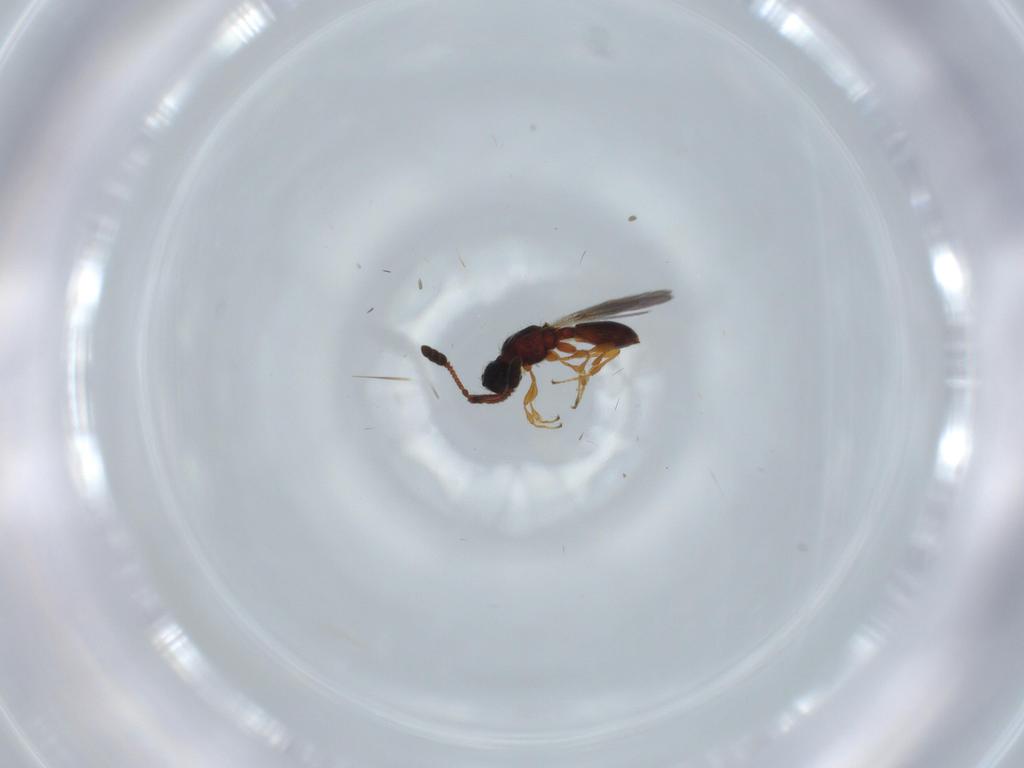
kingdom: Animalia
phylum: Arthropoda
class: Insecta
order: Hymenoptera
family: Diapriidae
